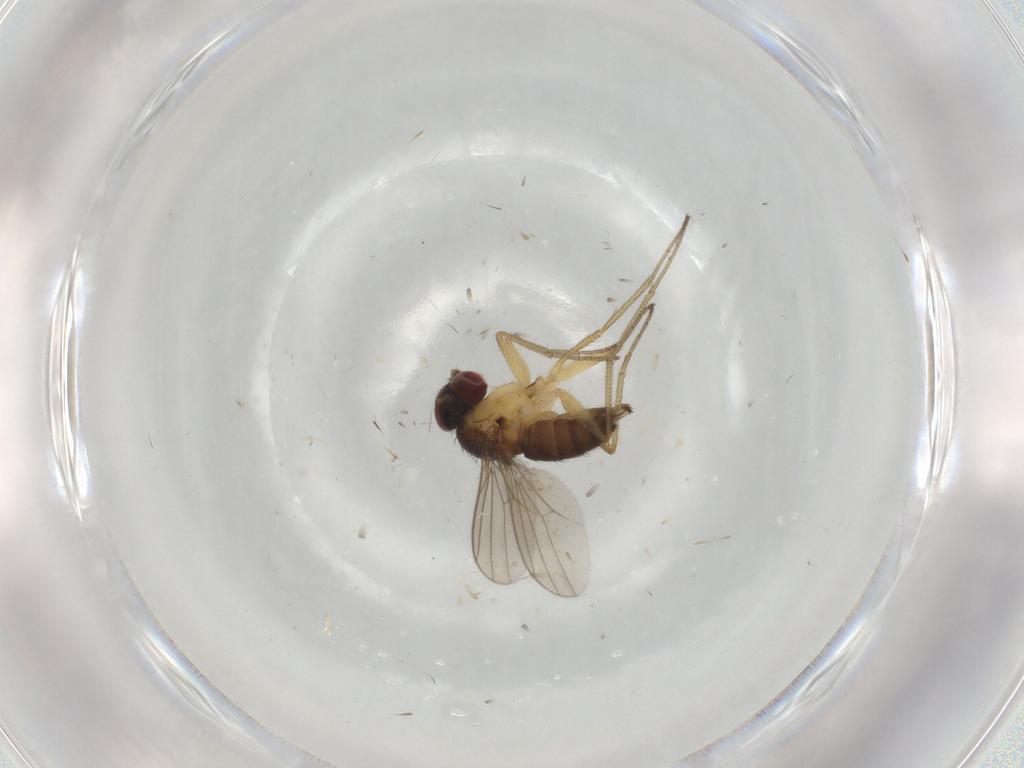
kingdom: Animalia
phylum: Arthropoda
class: Insecta
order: Diptera
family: Dolichopodidae
